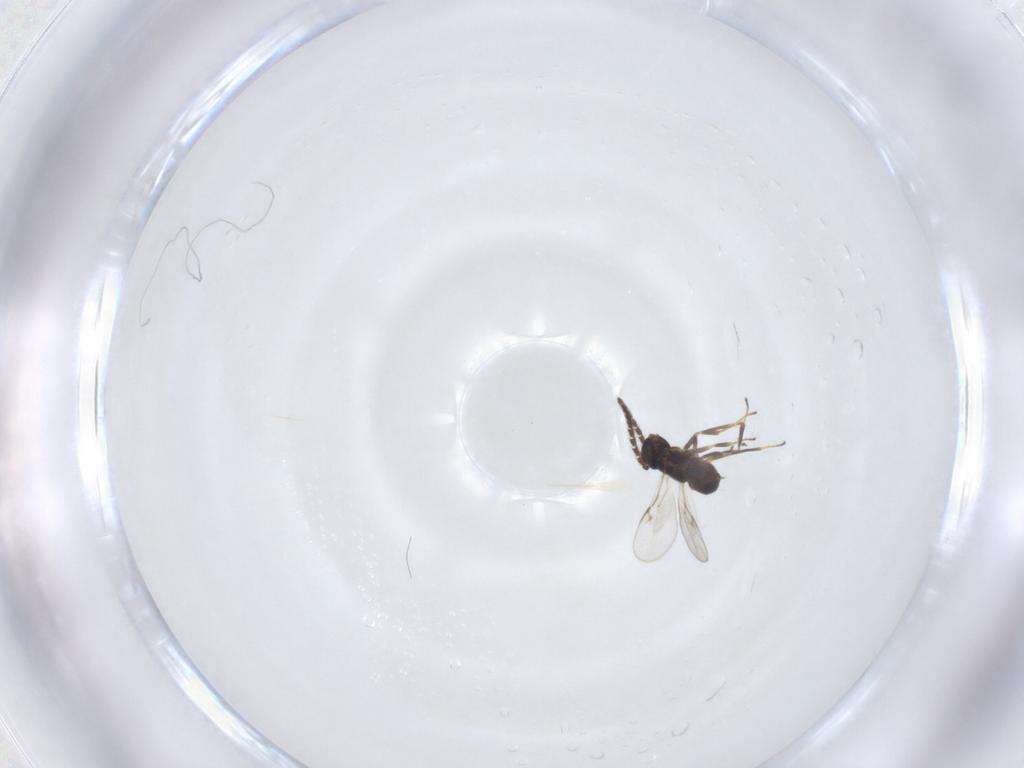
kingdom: Animalia
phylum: Arthropoda
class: Insecta
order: Hymenoptera
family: Encyrtidae
